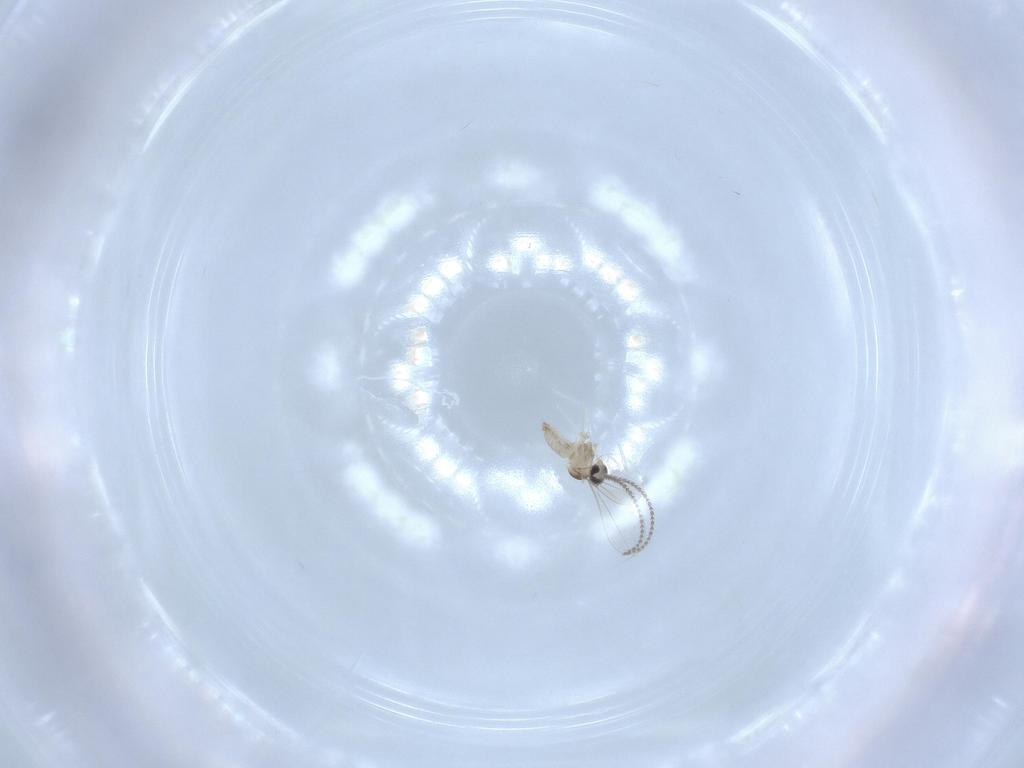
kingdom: Animalia
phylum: Arthropoda
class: Insecta
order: Diptera
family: Cecidomyiidae
